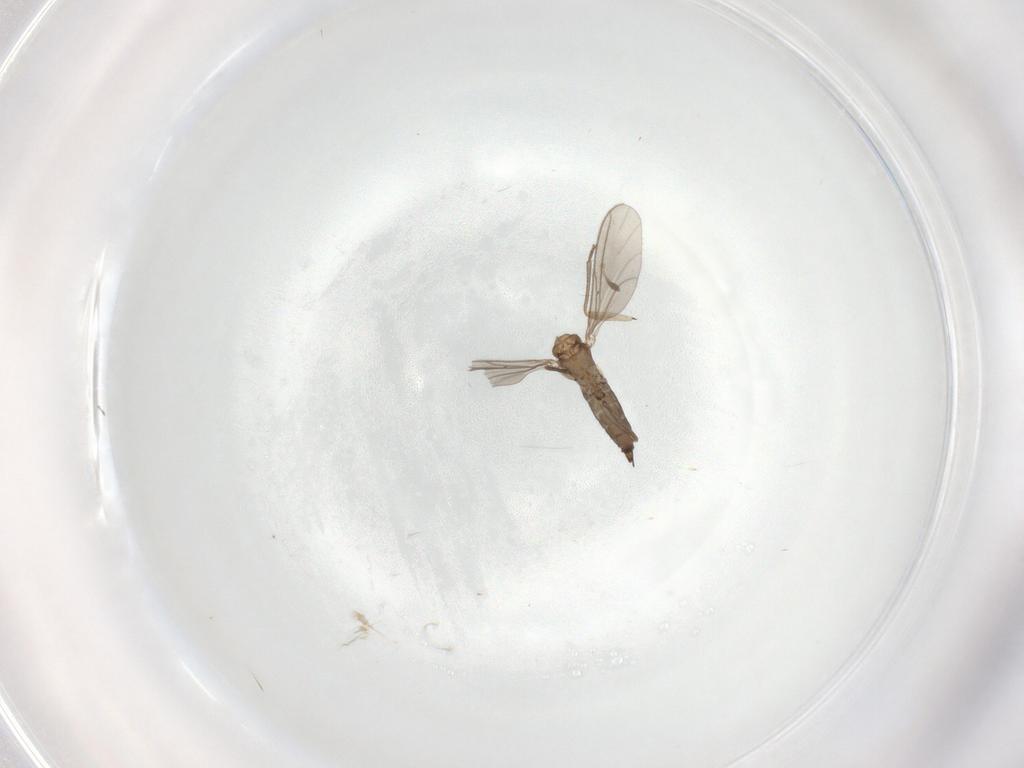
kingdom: Animalia
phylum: Arthropoda
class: Insecta
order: Diptera
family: Sciaridae
